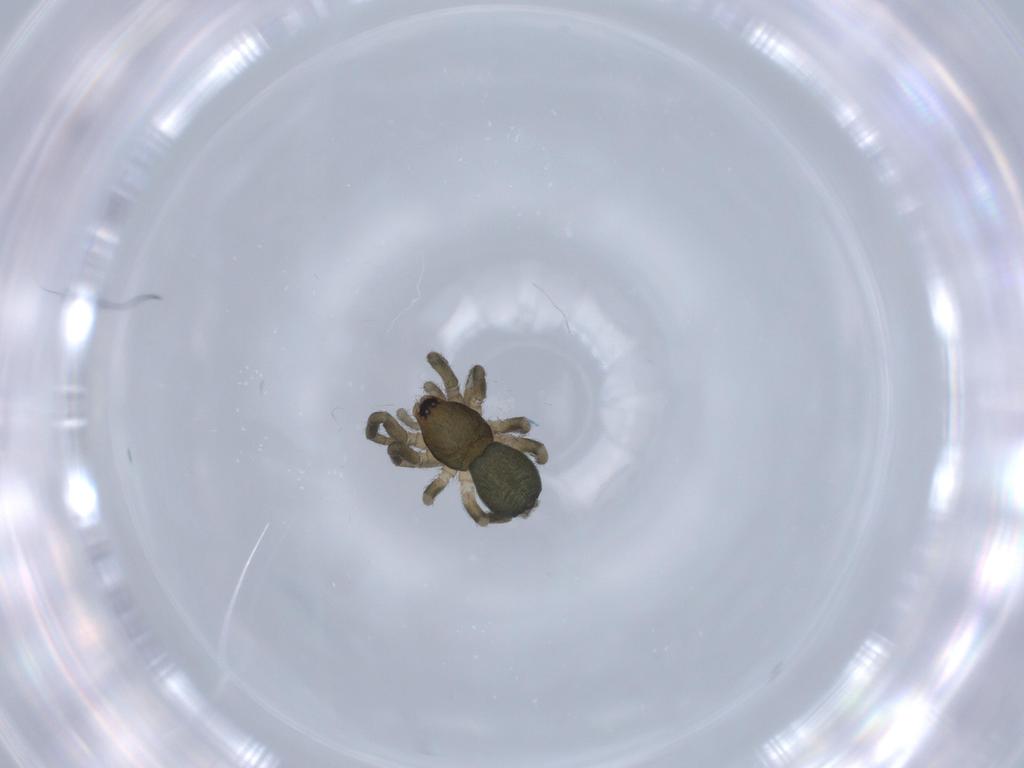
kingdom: Animalia
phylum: Arthropoda
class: Arachnida
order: Araneae
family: Gnaphosidae
